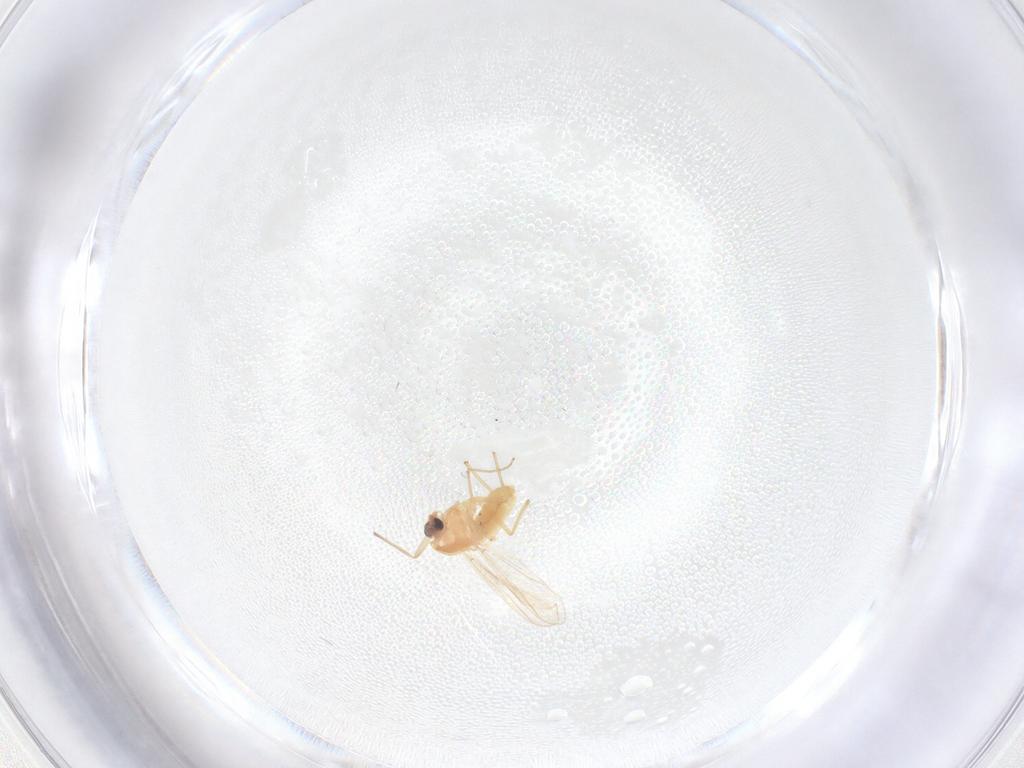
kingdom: Animalia
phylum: Arthropoda
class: Insecta
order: Diptera
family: Chironomidae
